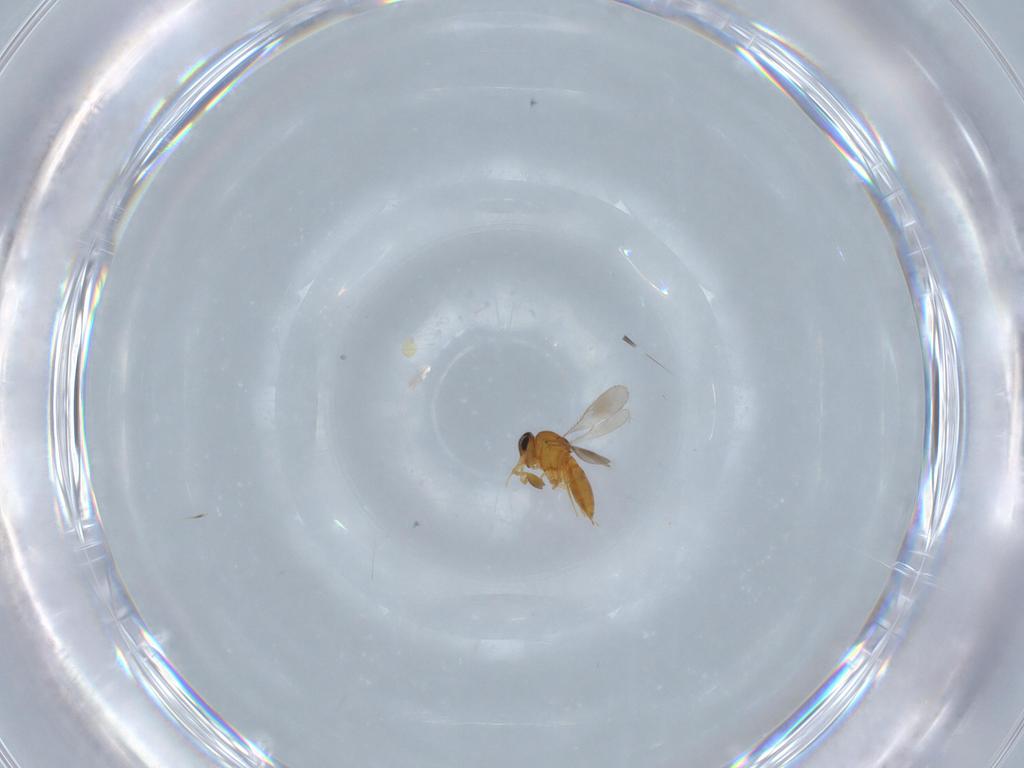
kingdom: Animalia
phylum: Arthropoda
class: Insecta
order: Hymenoptera
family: Scelionidae
